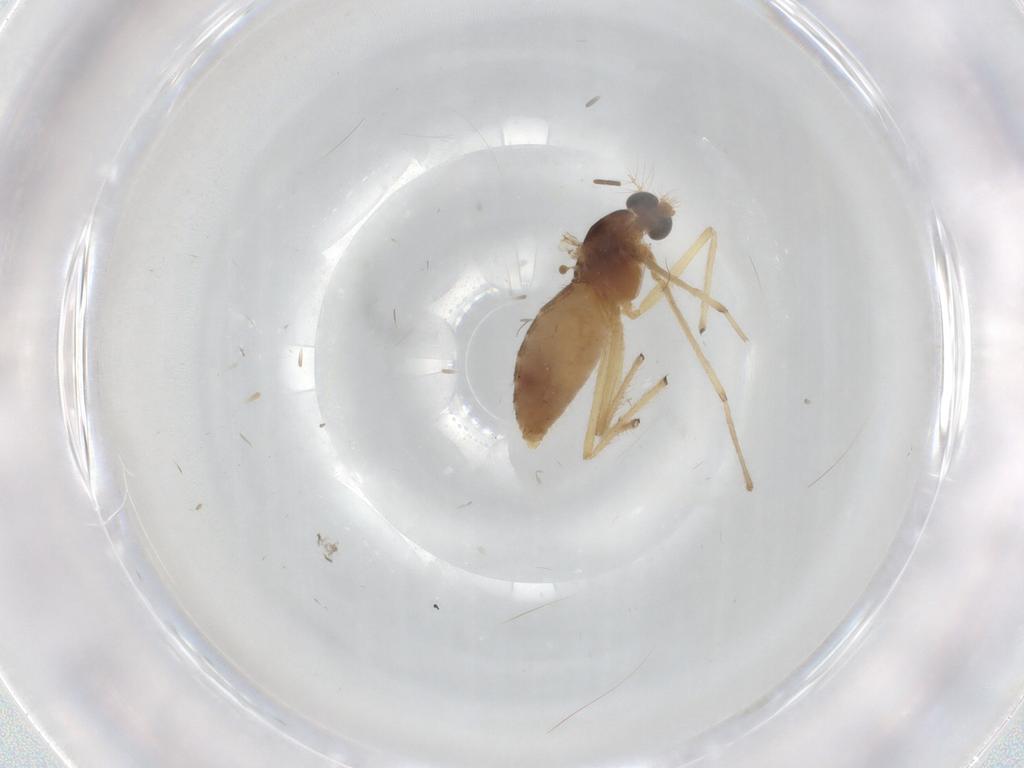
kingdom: Animalia
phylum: Arthropoda
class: Insecta
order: Diptera
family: Chironomidae
